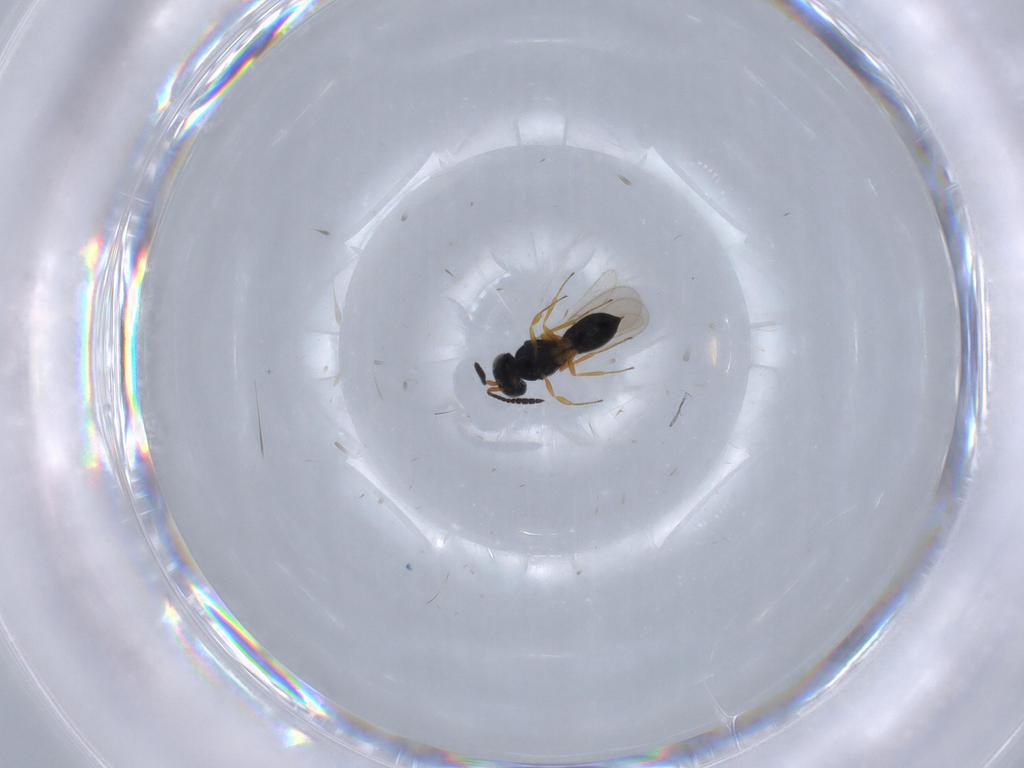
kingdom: Animalia
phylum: Arthropoda
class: Insecta
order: Hymenoptera
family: Scelionidae
